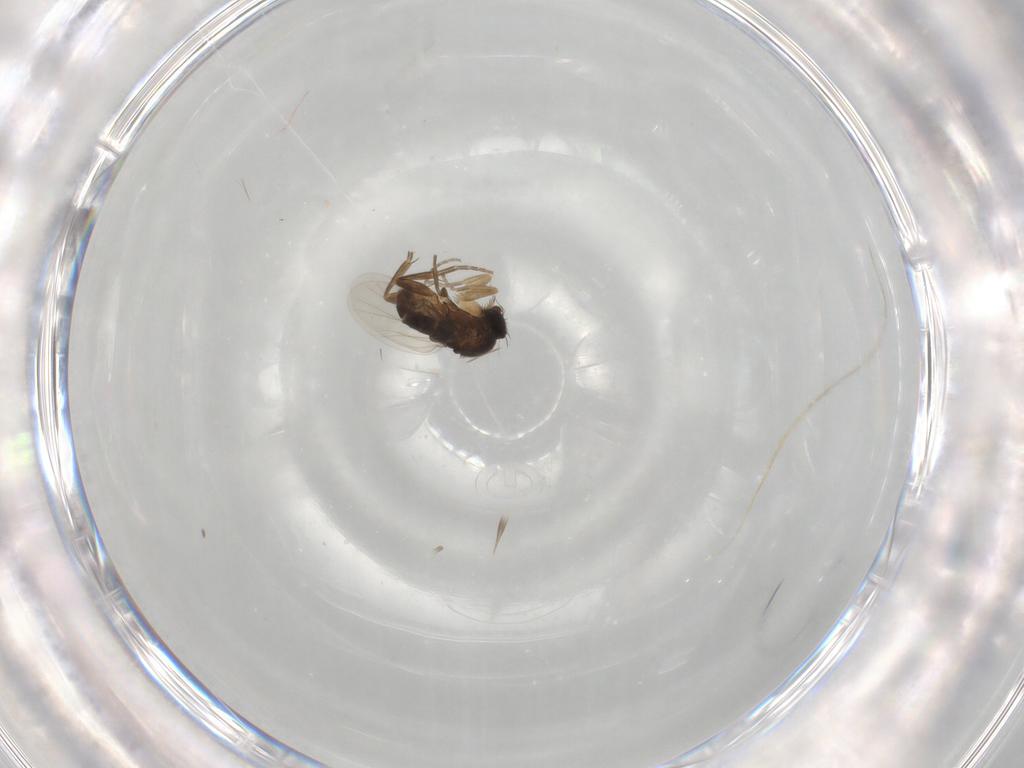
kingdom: Animalia
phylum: Arthropoda
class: Insecta
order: Diptera
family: Phoridae
